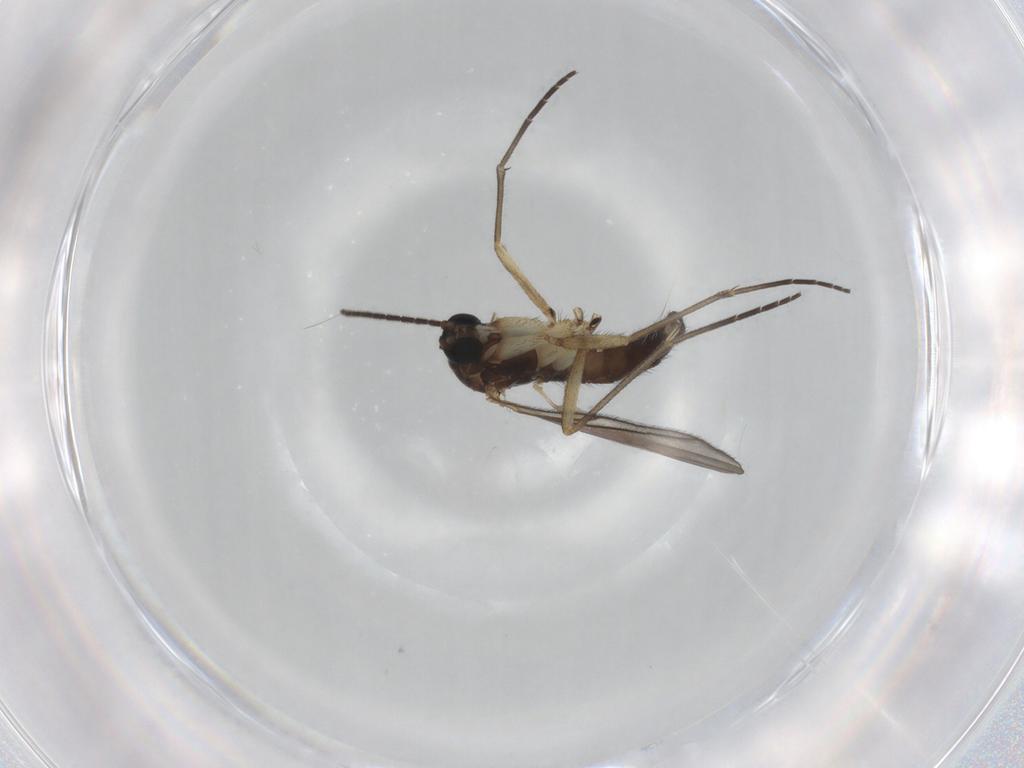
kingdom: Animalia
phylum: Arthropoda
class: Insecta
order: Diptera
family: Sciaridae
